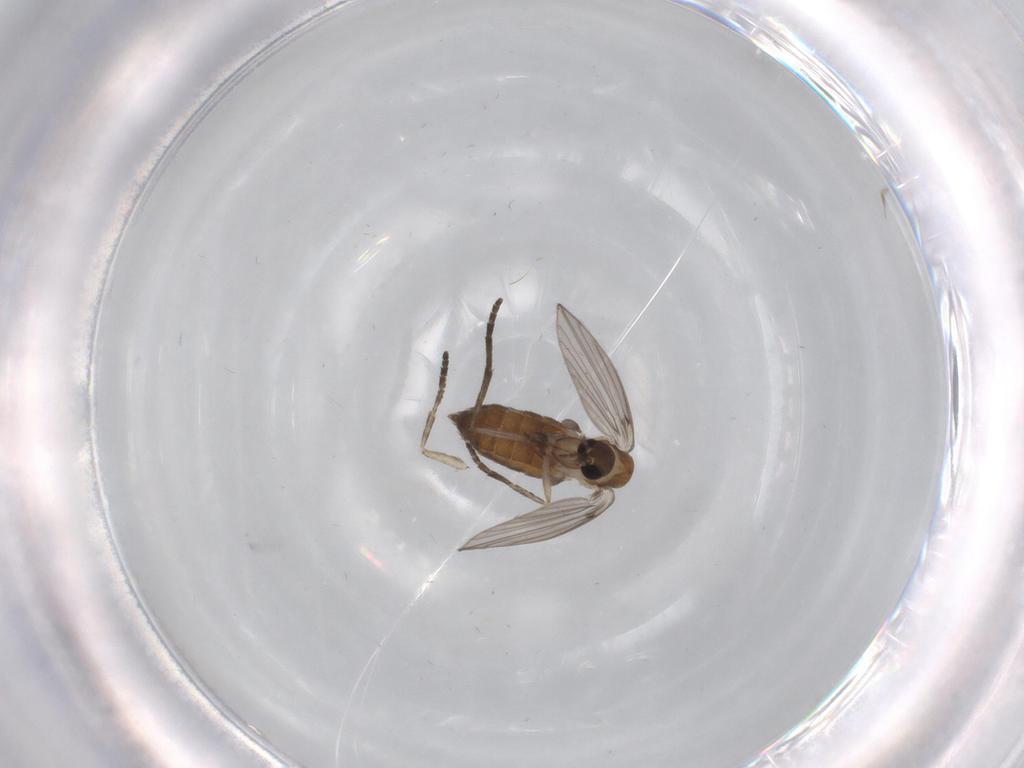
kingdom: Animalia
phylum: Arthropoda
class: Insecta
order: Diptera
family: Psychodidae
